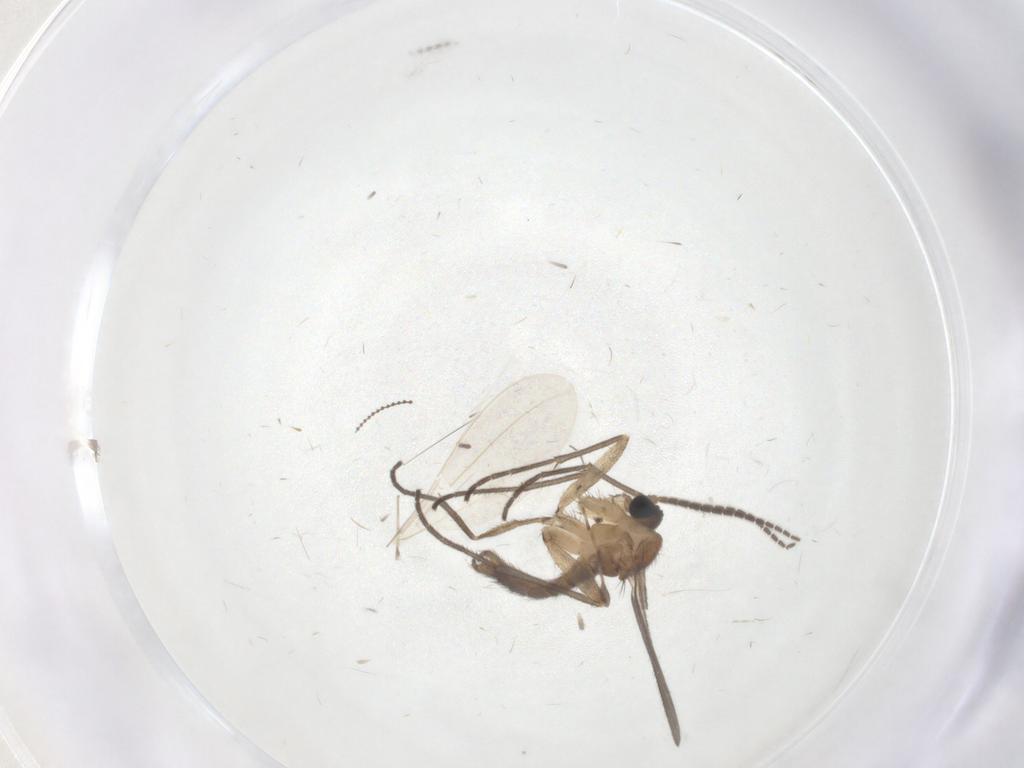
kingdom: Animalia
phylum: Arthropoda
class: Insecta
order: Diptera
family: Sciaridae
